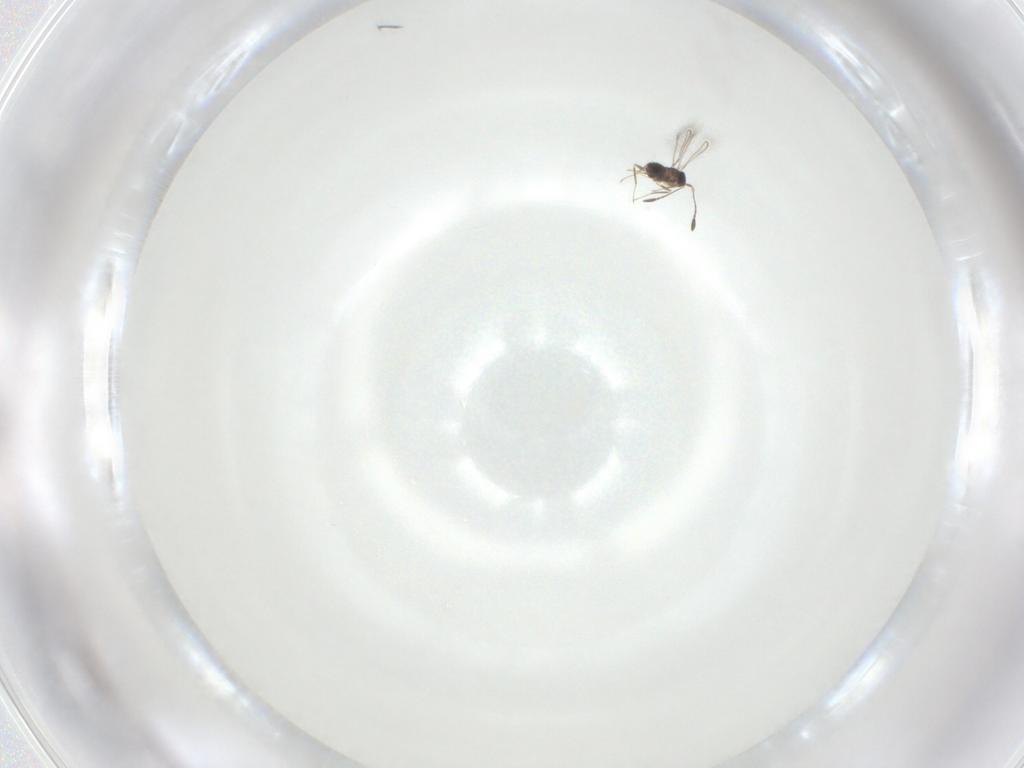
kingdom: Animalia
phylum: Arthropoda
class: Insecta
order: Hymenoptera
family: Mymaridae
